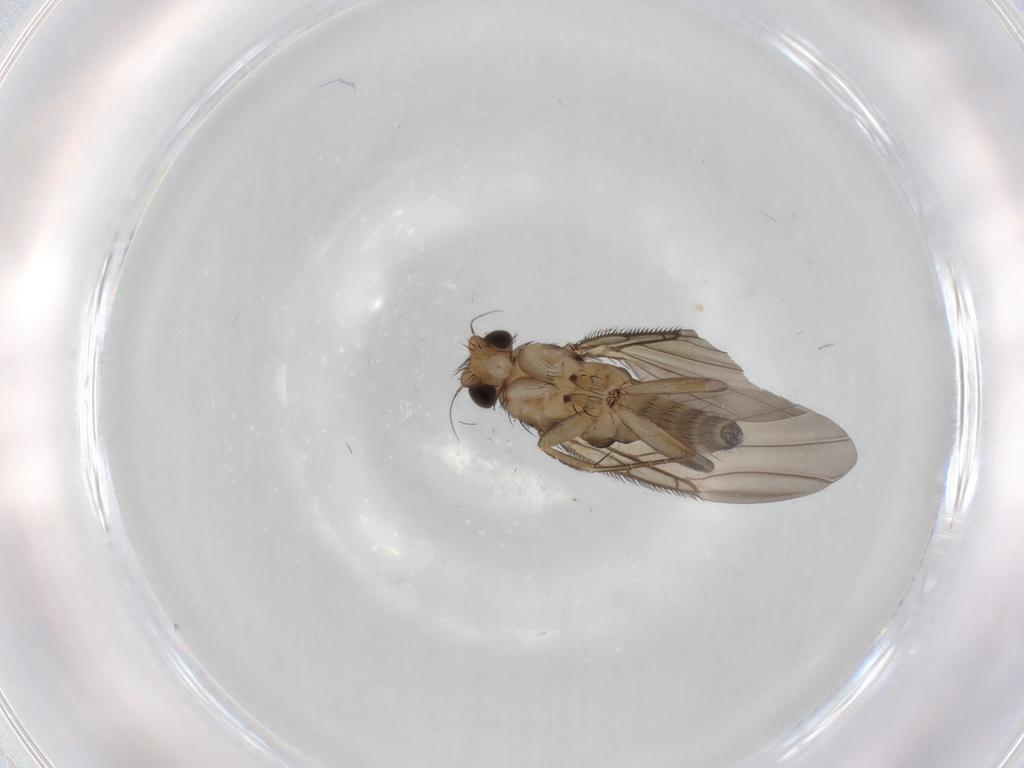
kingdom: Animalia
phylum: Arthropoda
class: Insecta
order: Diptera
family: Phoridae
